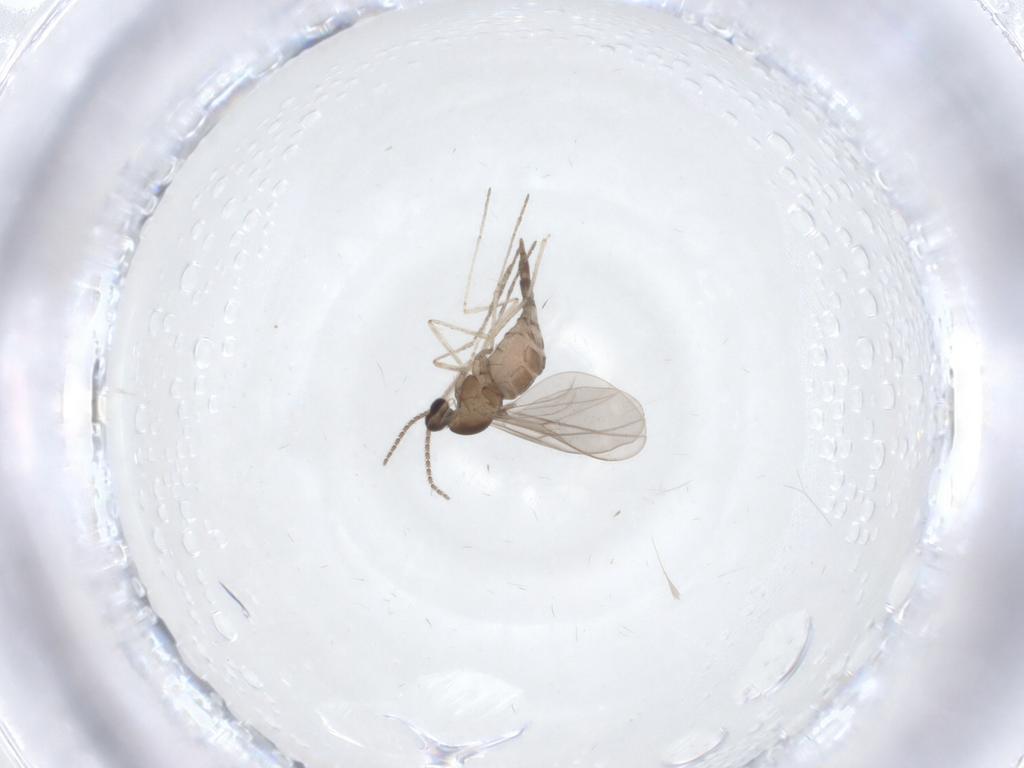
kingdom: Animalia
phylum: Arthropoda
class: Insecta
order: Diptera
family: Cecidomyiidae
